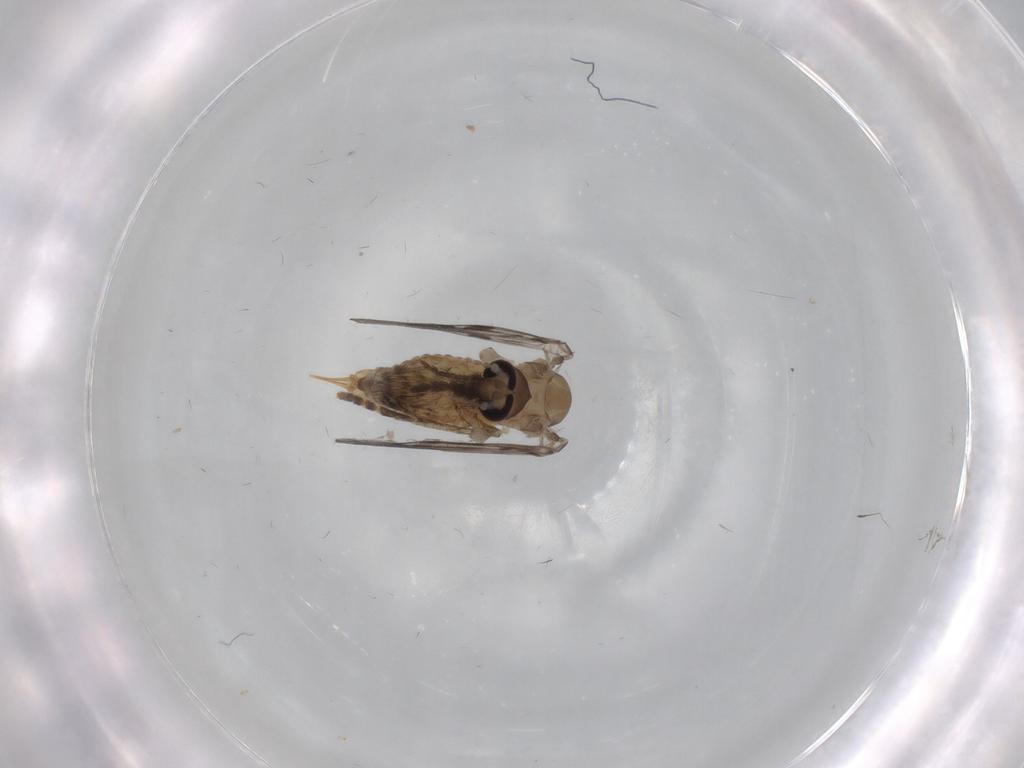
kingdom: Animalia
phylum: Arthropoda
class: Insecta
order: Diptera
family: Psychodidae
